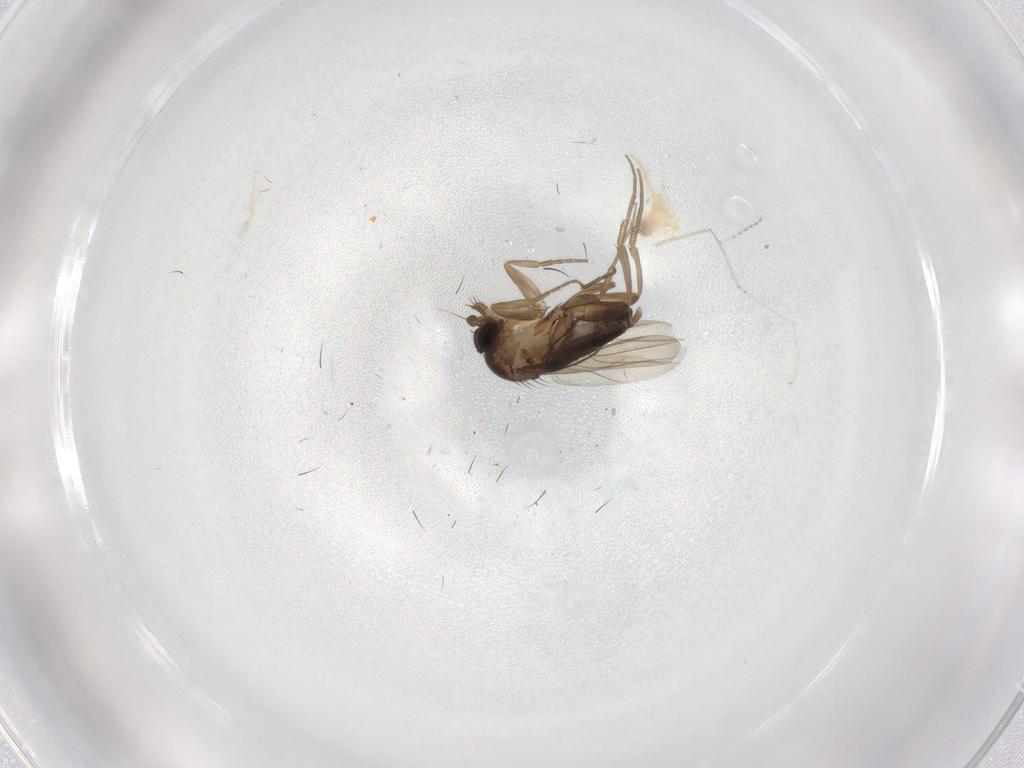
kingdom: Animalia
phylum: Arthropoda
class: Insecta
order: Diptera
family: Phoridae
